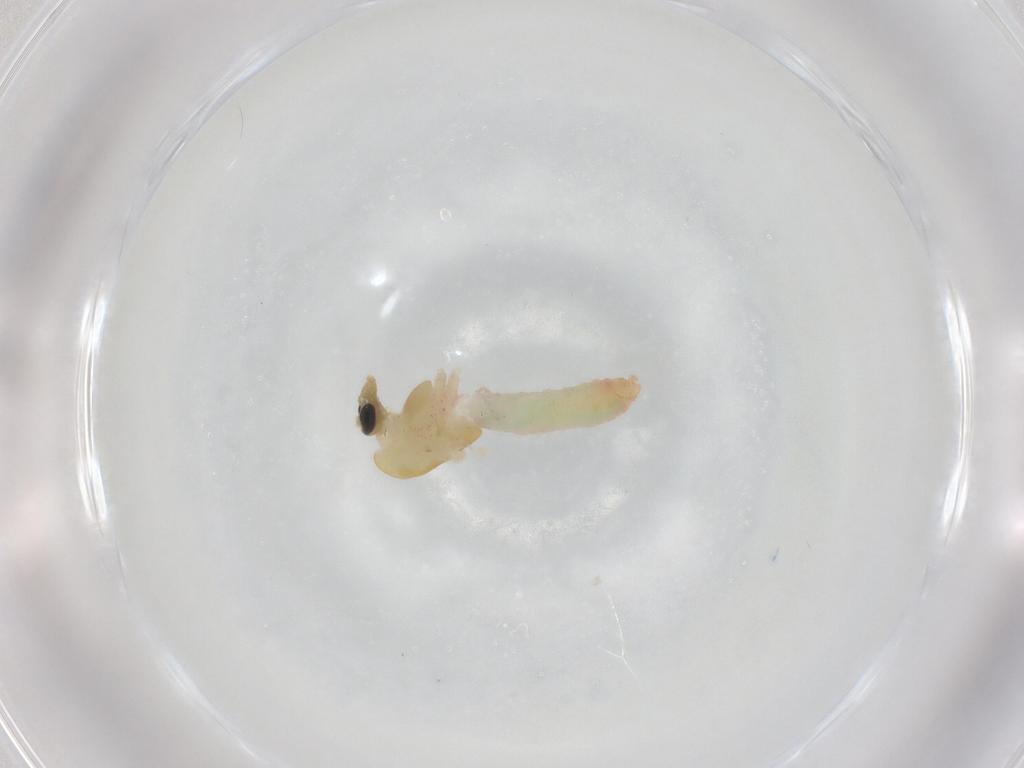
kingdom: Animalia
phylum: Arthropoda
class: Insecta
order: Diptera
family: Chironomidae
